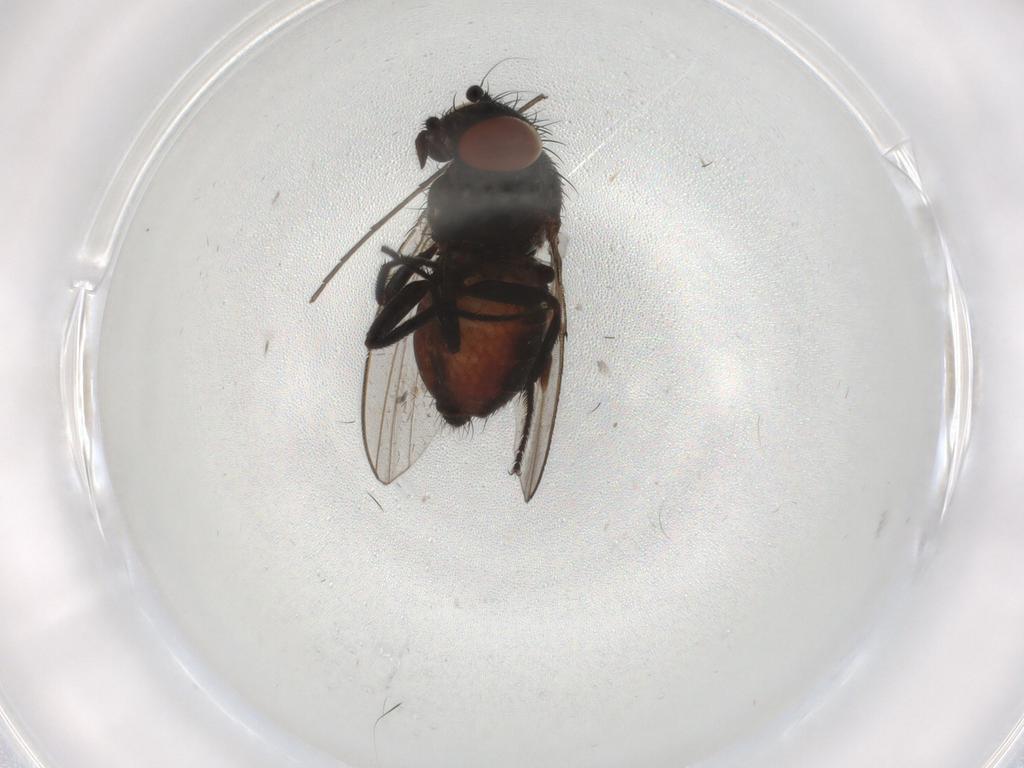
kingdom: Animalia
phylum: Arthropoda
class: Insecta
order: Diptera
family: Milichiidae
